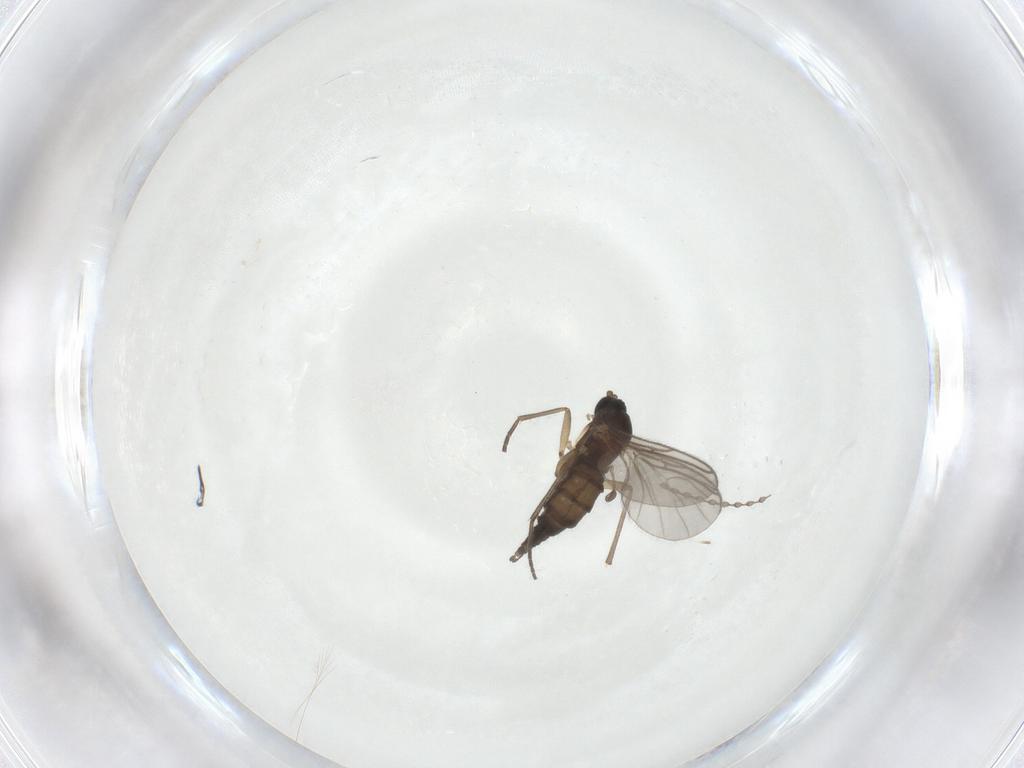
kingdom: Animalia
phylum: Arthropoda
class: Insecta
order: Diptera
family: Sciaridae
